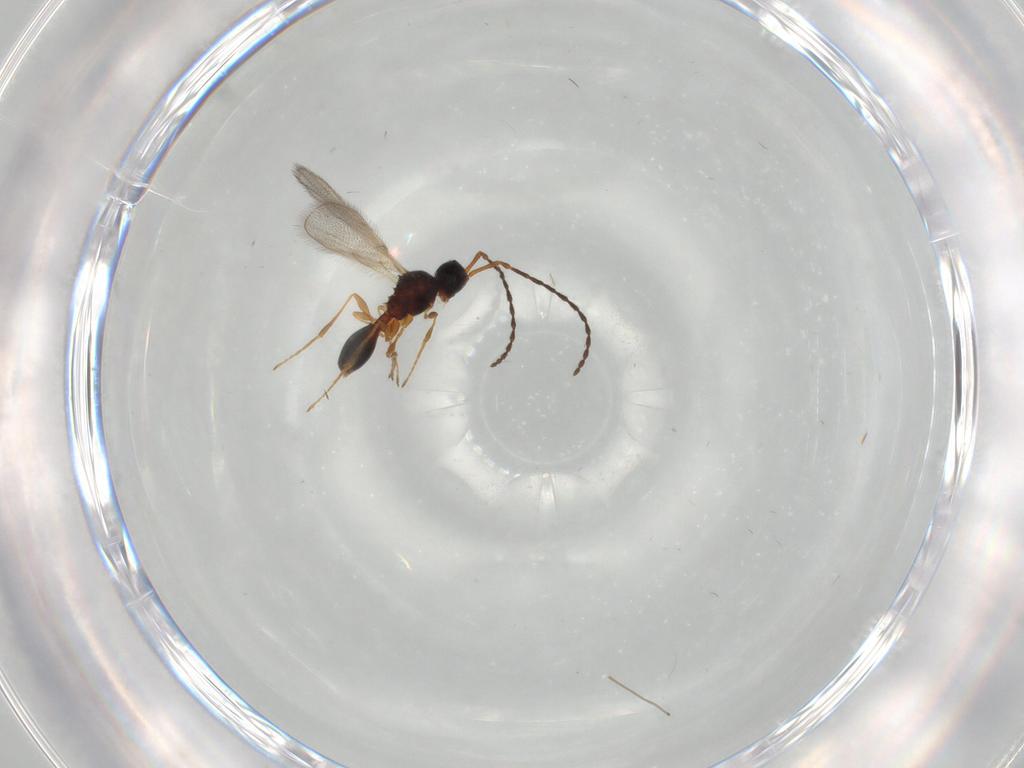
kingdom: Animalia
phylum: Arthropoda
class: Insecta
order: Hymenoptera
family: Diapriidae
